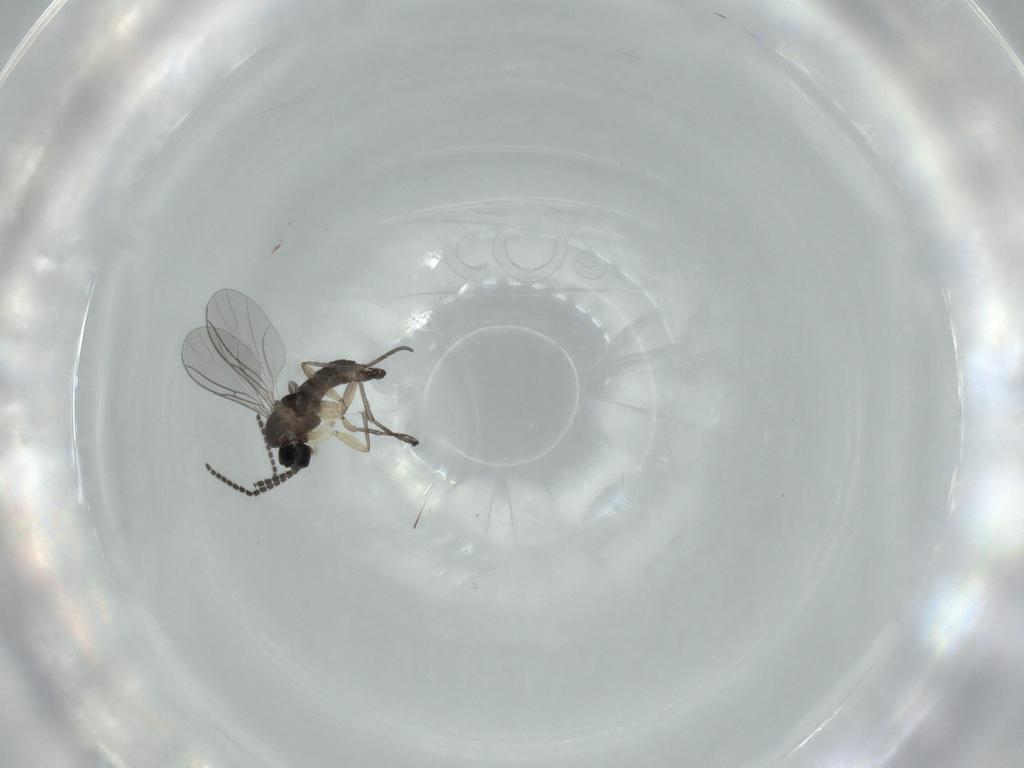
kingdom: Animalia
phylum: Arthropoda
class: Insecta
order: Diptera
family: Sciaridae
